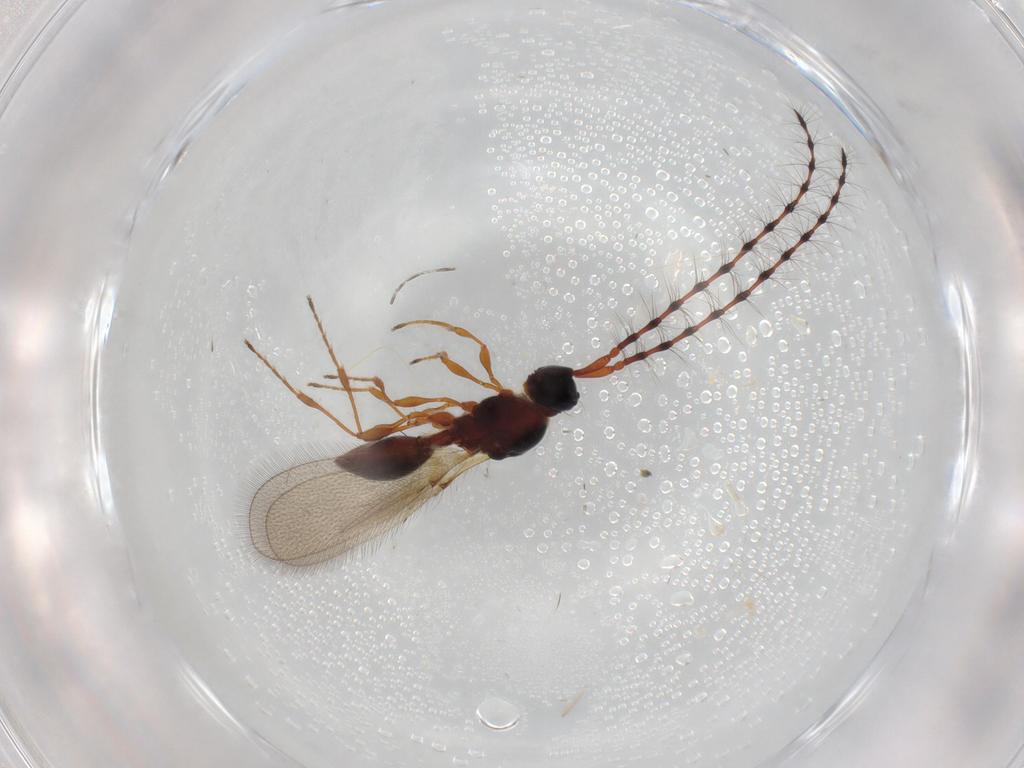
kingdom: Animalia
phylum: Arthropoda
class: Insecta
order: Hymenoptera
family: Diapriidae
